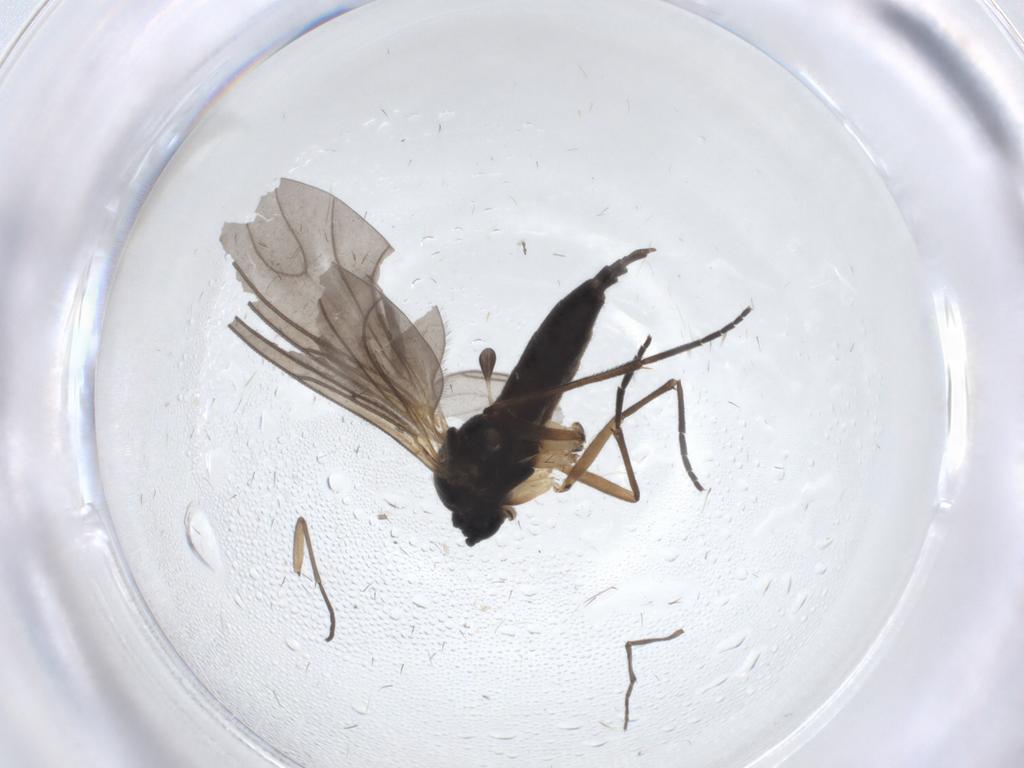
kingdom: Animalia
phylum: Arthropoda
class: Insecta
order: Diptera
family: Sciaridae
